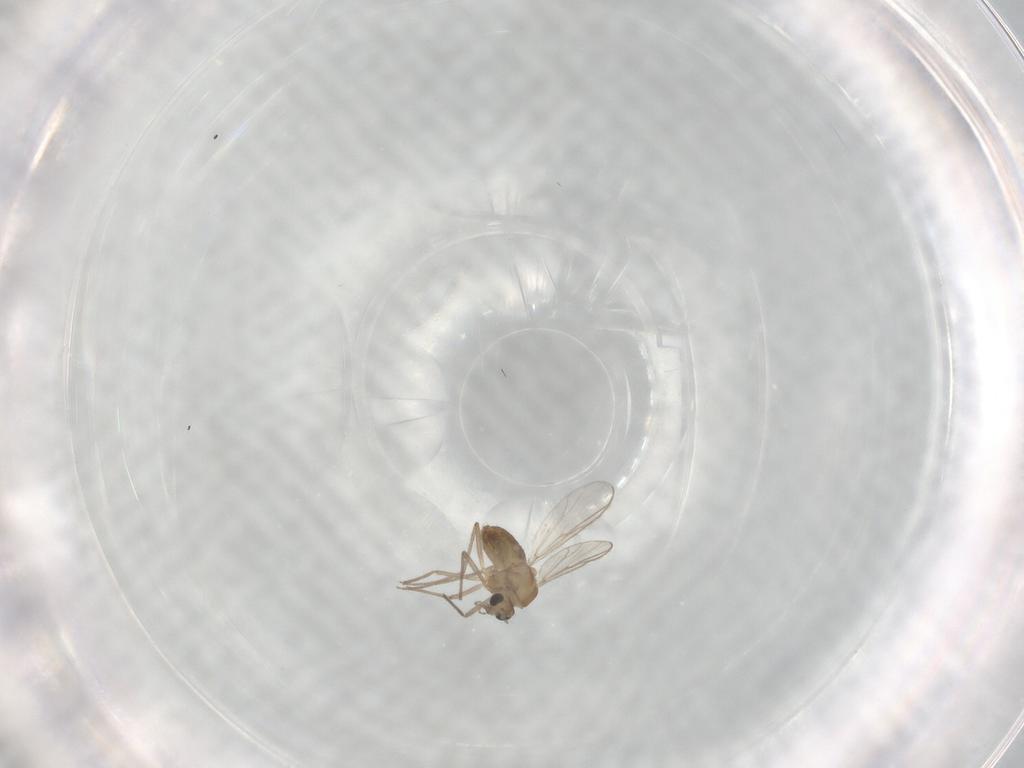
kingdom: Animalia
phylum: Arthropoda
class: Insecta
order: Diptera
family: Chironomidae
